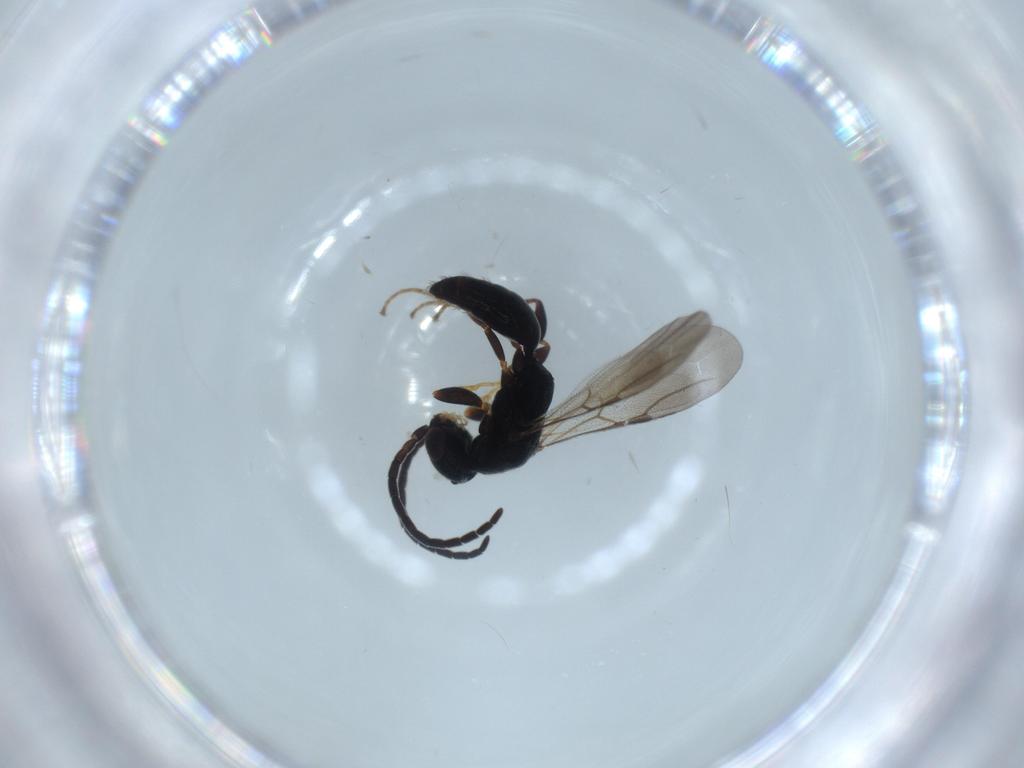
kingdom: Animalia
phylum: Arthropoda
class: Insecta
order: Hymenoptera
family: Bethylidae
